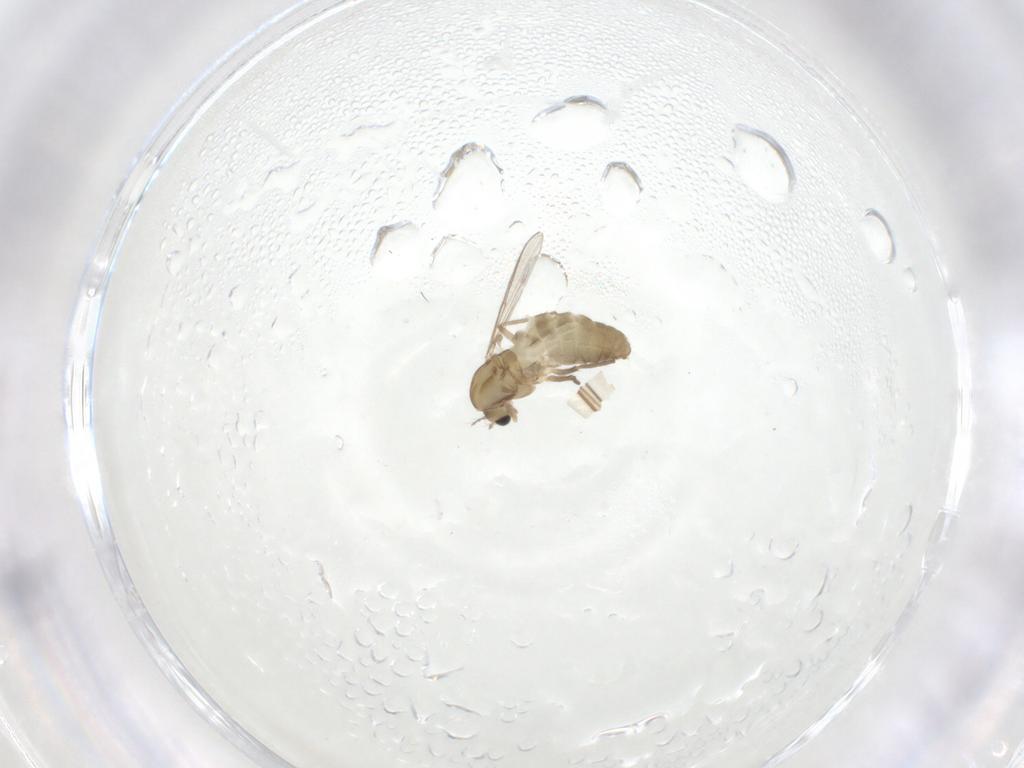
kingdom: Animalia
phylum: Arthropoda
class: Insecta
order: Diptera
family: Chironomidae
